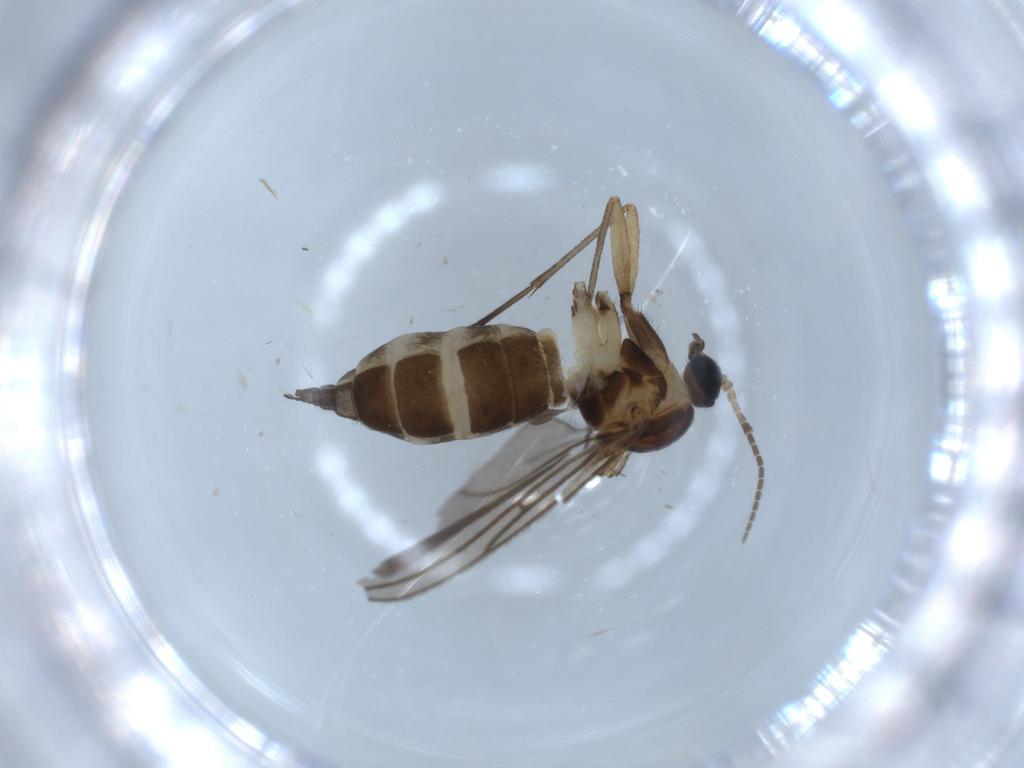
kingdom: Animalia
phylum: Arthropoda
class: Insecta
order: Diptera
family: Sciaridae
